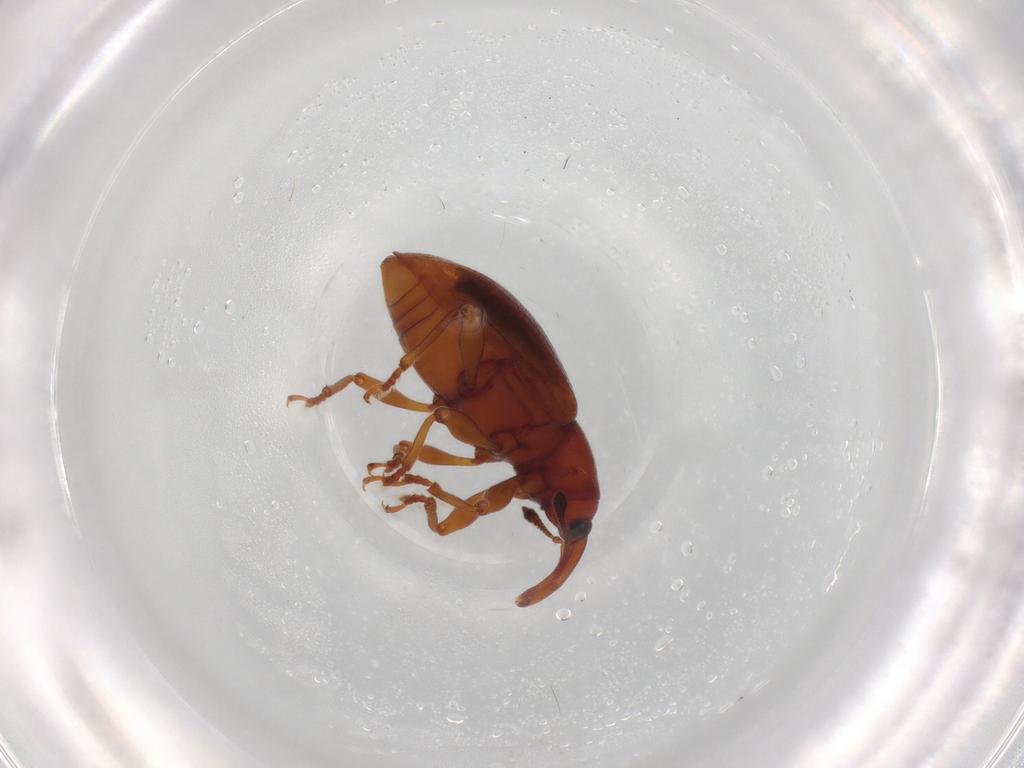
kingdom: Animalia
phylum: Arthropoda
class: Insecta
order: Coleoptera
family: Curculionidae
